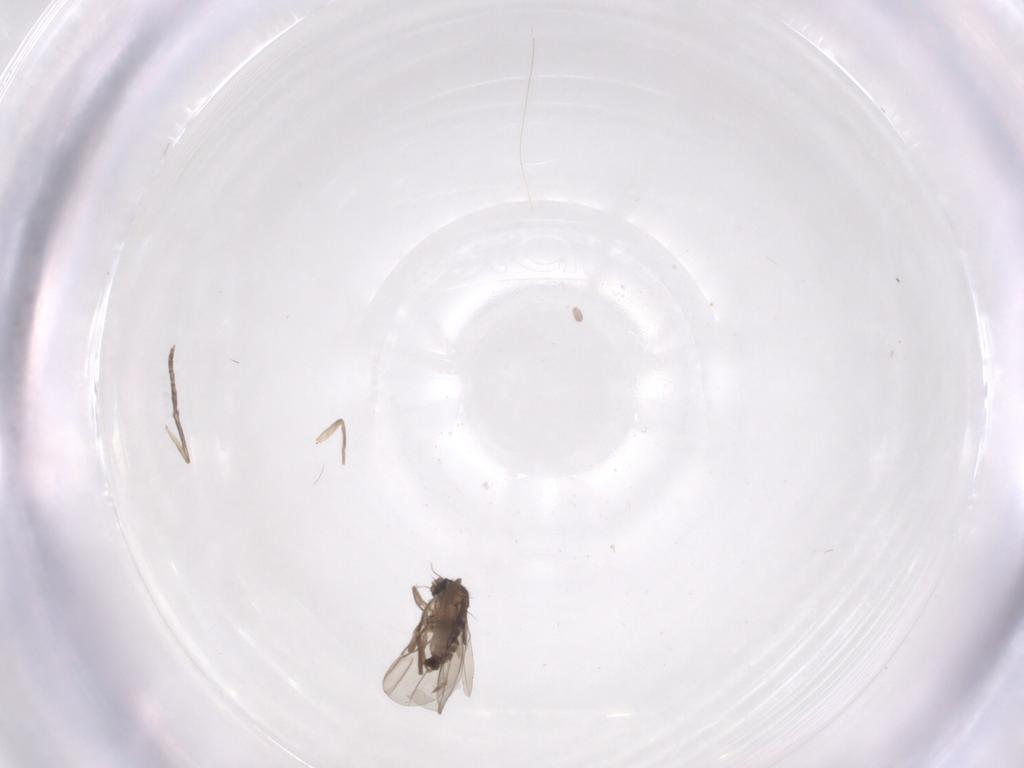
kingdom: Animalia
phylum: Arthropoda
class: Insecta
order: Diptera
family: Phoridae
